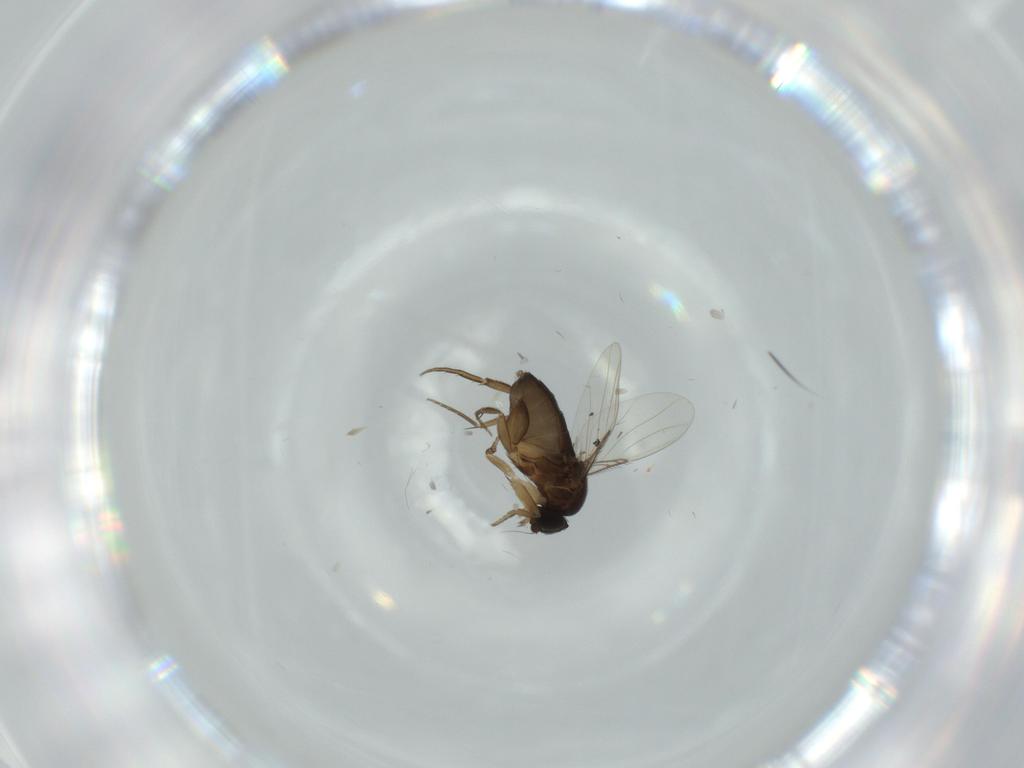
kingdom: Animalia
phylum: Arthropoda
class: Insecta
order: Diptera
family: Phoridae
